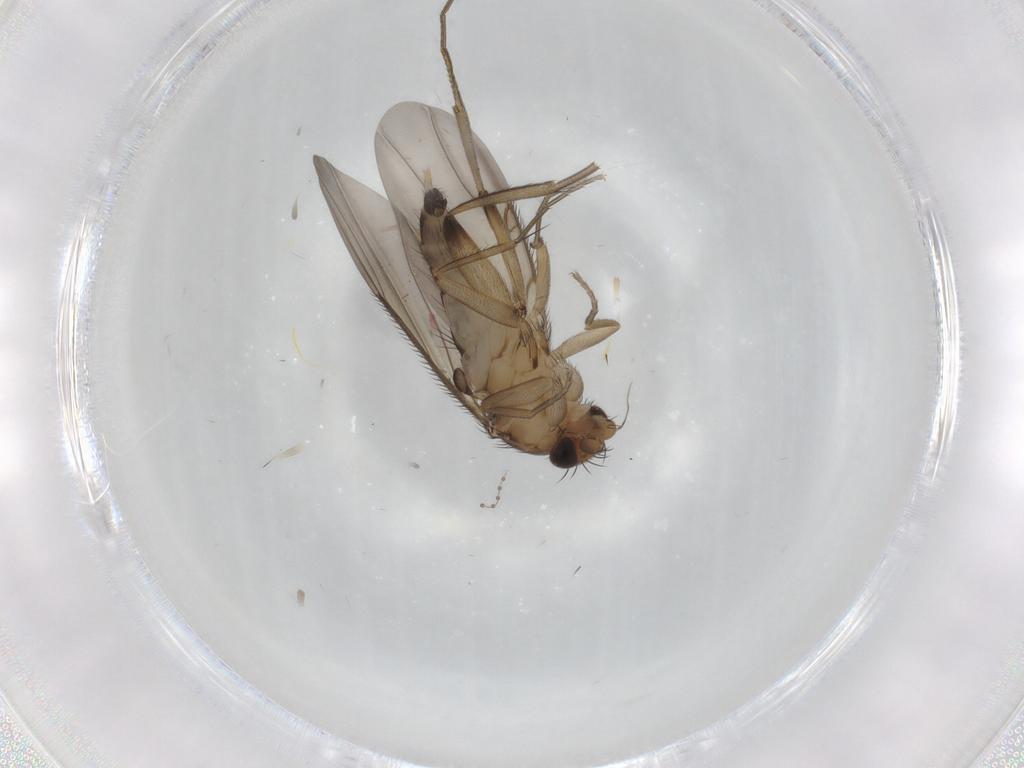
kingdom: Animalia
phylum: Arthropoda
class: Insecta
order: Diptera
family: Phoridae
